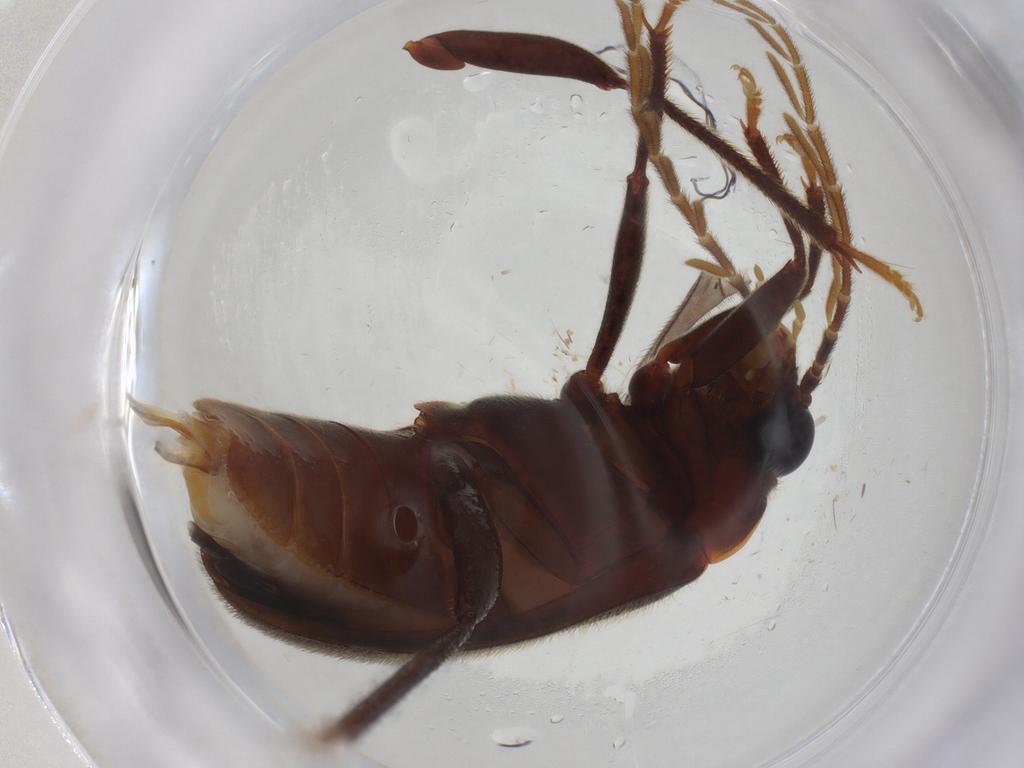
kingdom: Animalia
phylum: Arthropoda
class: Insecta
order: Coleoptera
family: Ptilodactylidae
